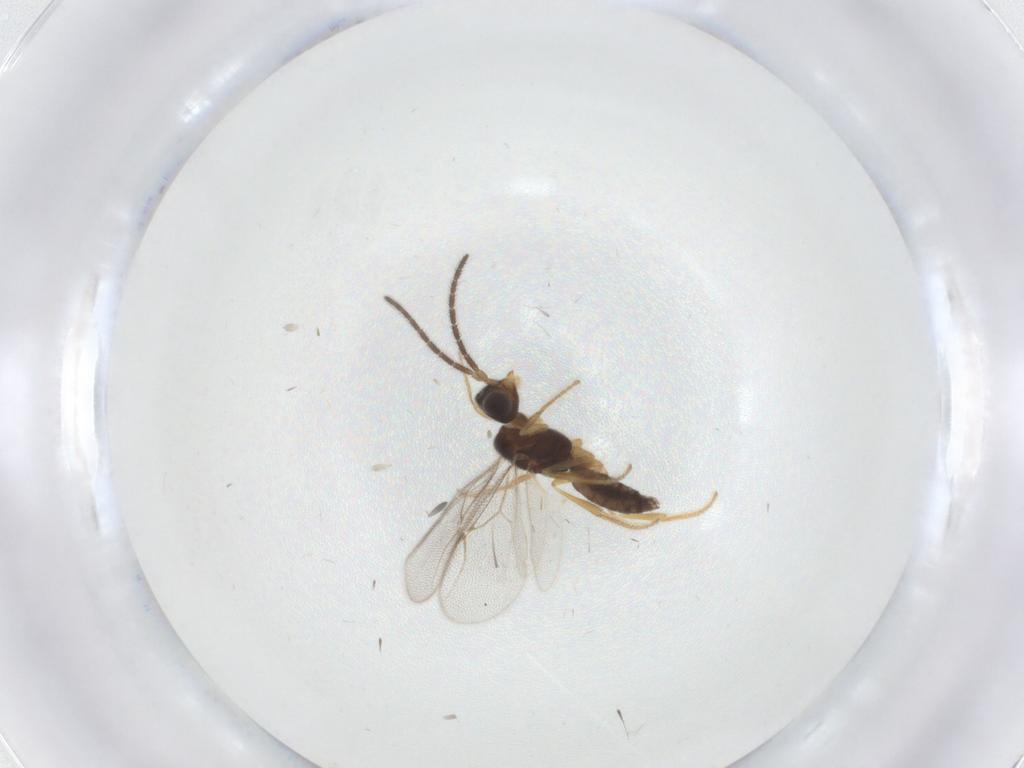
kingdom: Animalia
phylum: Arthropoda
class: Insecta
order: Hymenoptera
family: Dryinidae
